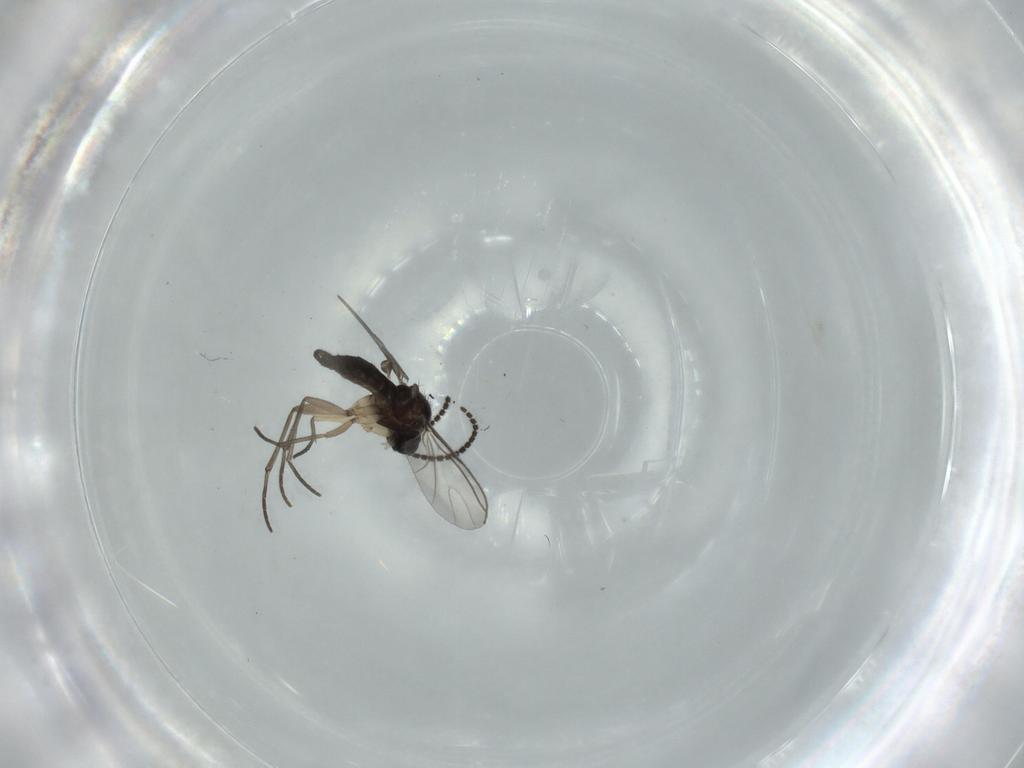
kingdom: Animalia
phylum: Arthropoda
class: Insecta
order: Diptera
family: Sciaridae
